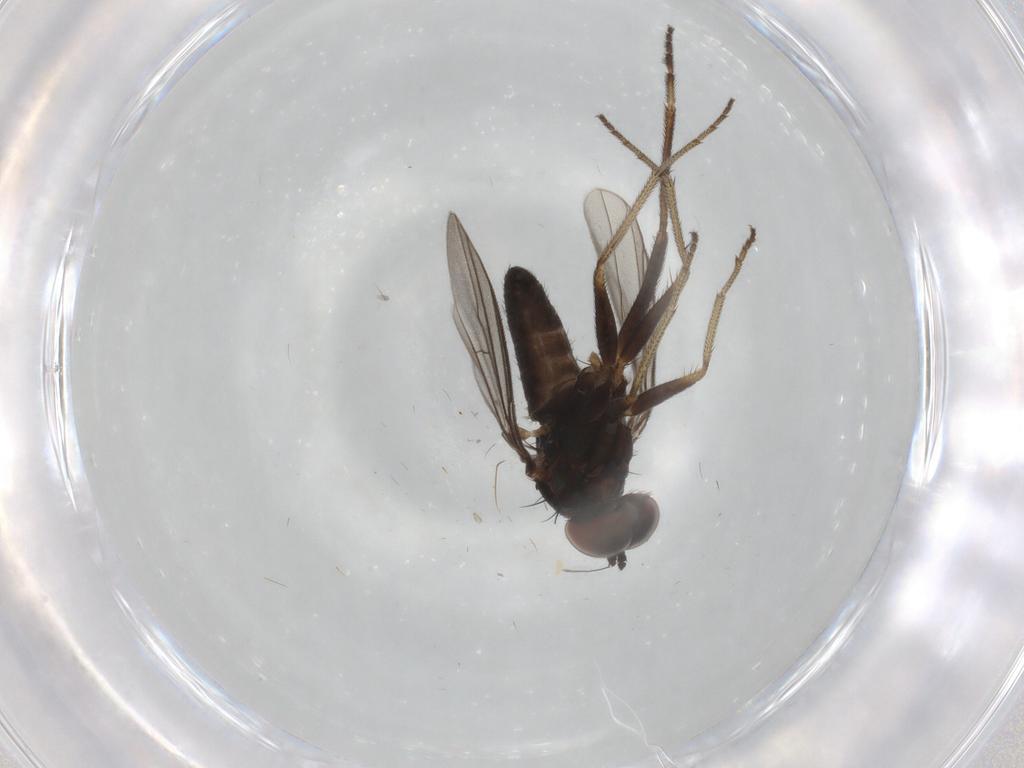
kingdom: Animalia
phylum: Arthropoda
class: Insecta
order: Diptera
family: Dolichopodidae
